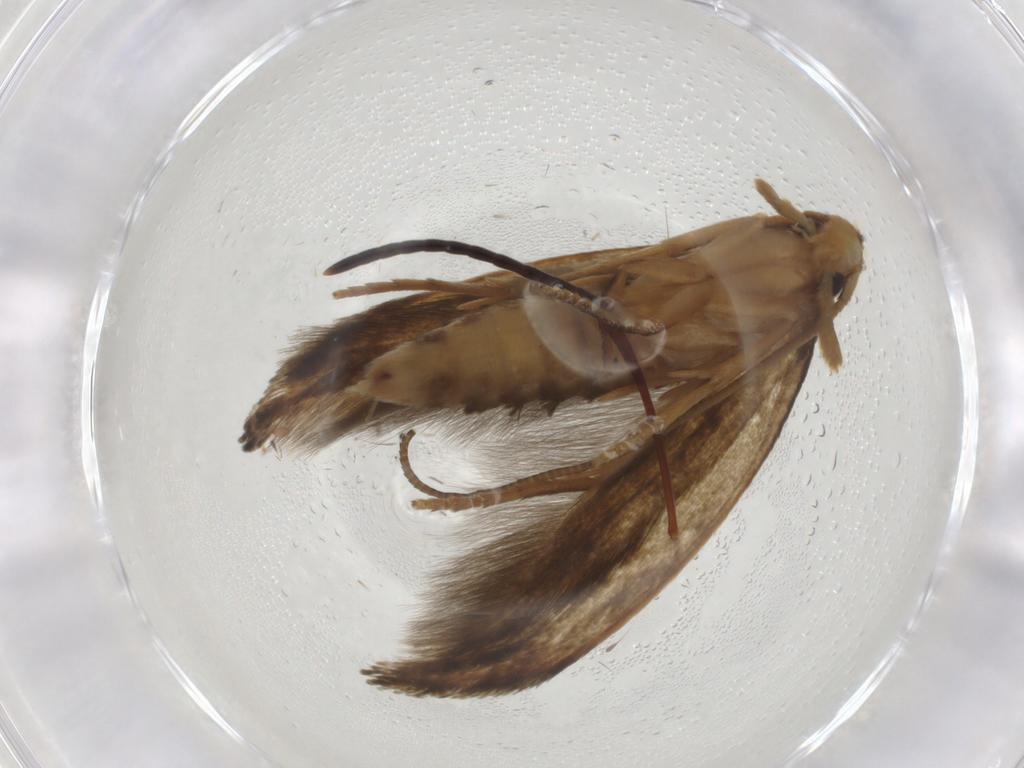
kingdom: Animalia
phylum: Arthropoda
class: Insecta
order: Lepidoptera
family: Tineidae
